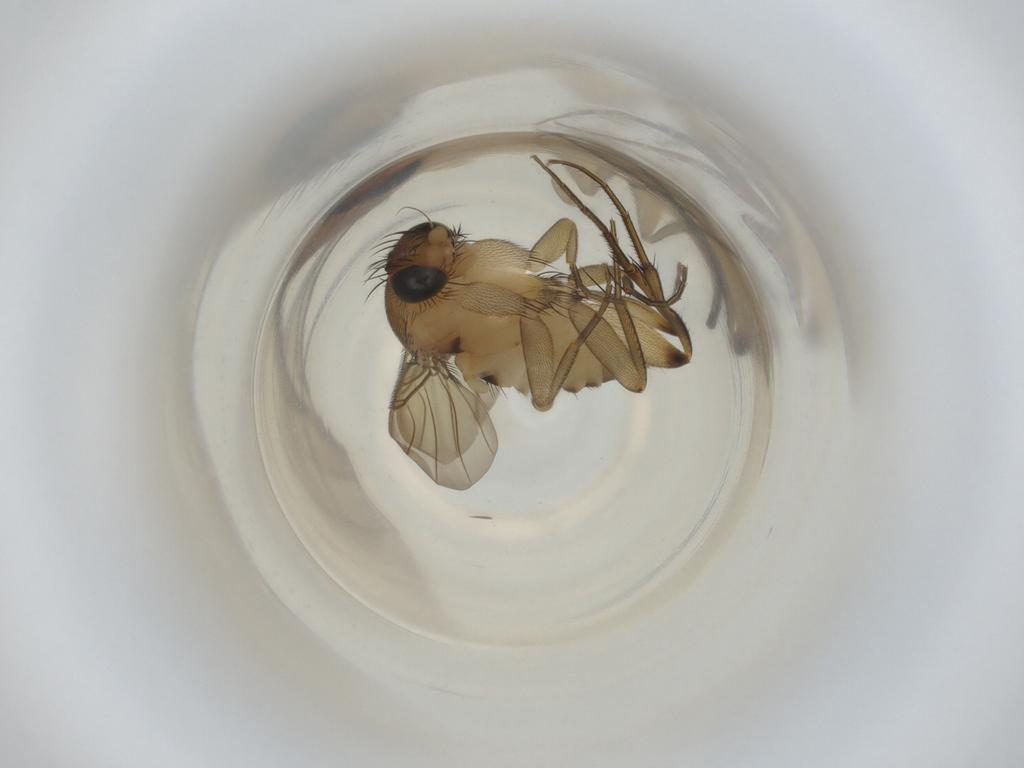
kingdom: Animalia
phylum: Arthropoda
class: Insecta
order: Diptera
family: Phoridae
